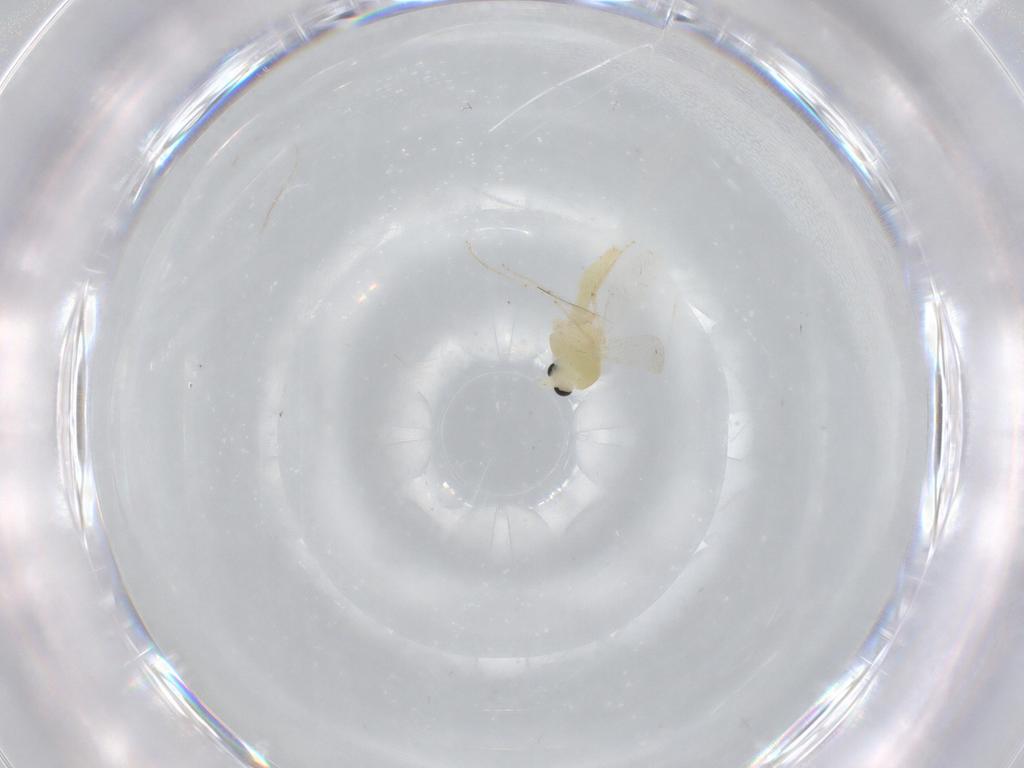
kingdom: Animalia
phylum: Arthropoda
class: Insecta
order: Diptera
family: Chironomidae
